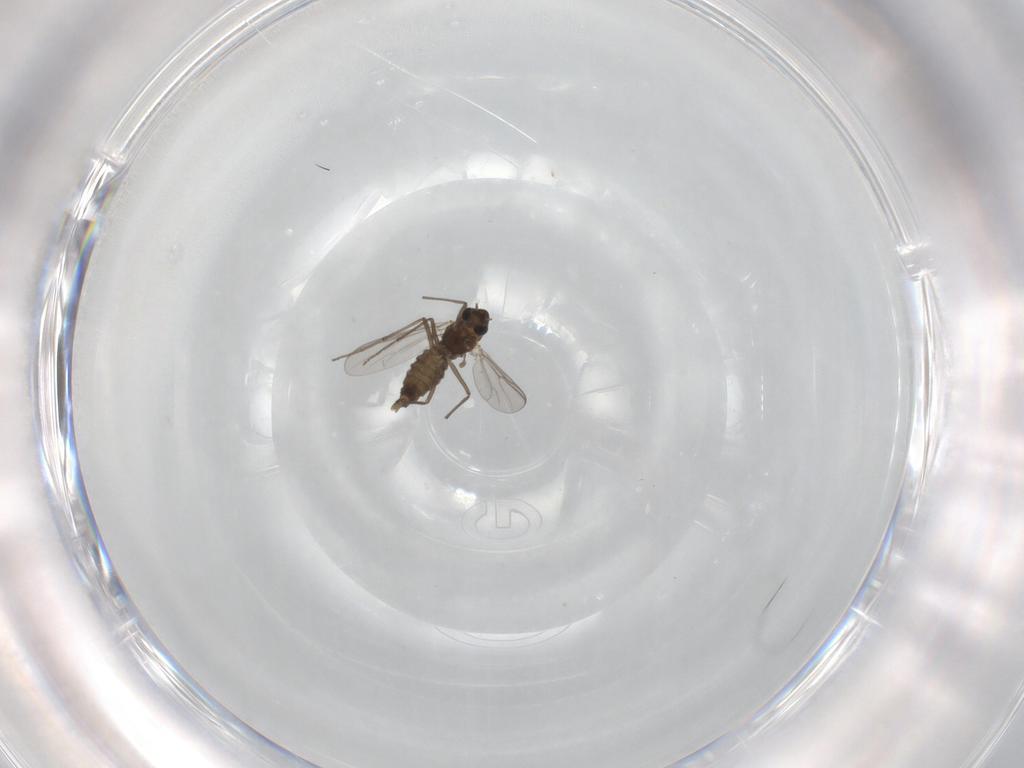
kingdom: Animalia
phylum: Arthropoda
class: Insecta
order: Diptera
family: Chironomidae
